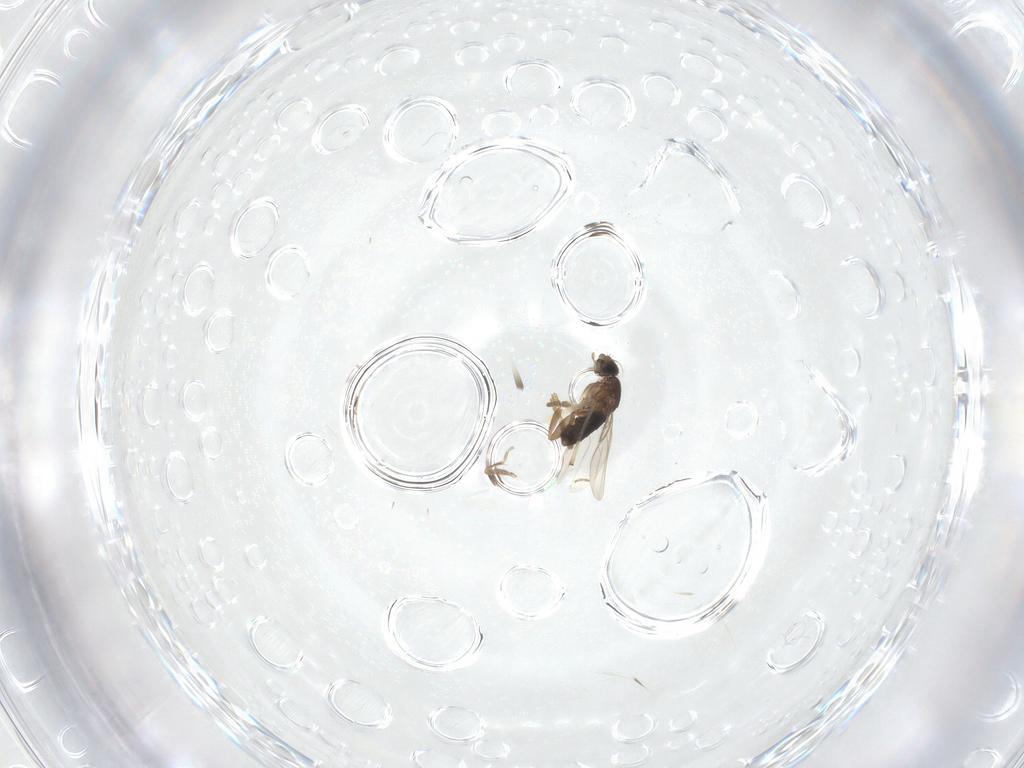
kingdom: Animalia
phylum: Arthropoda
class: Insecta
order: Diptera
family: Phoridae
